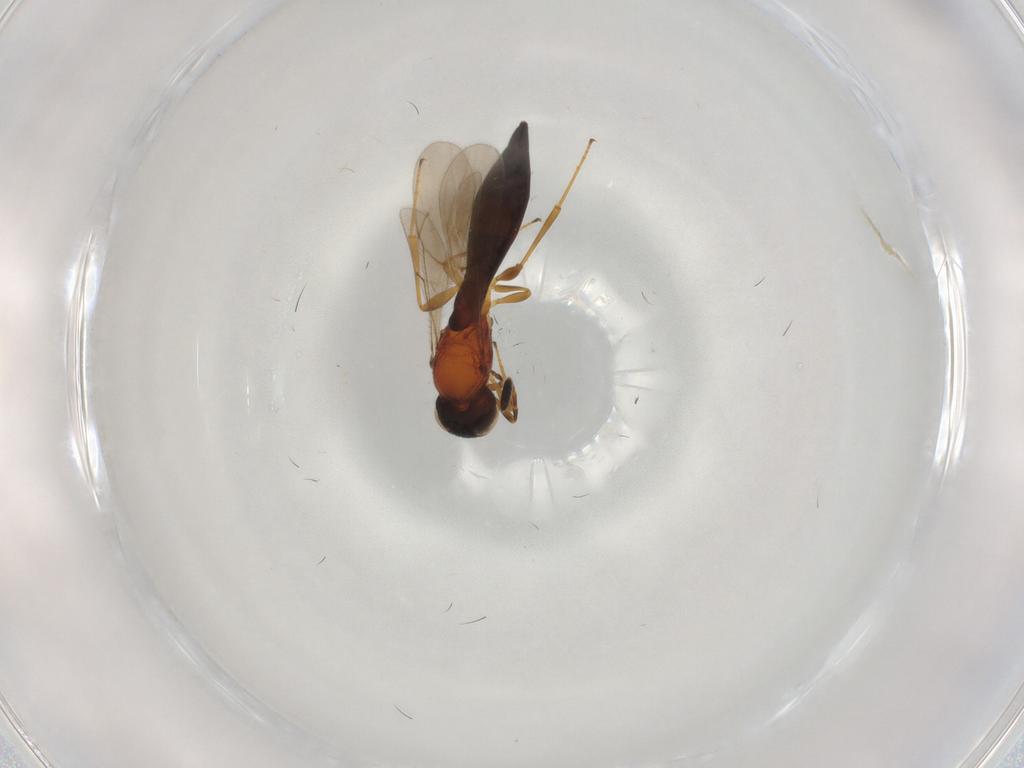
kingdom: Animalia
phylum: Arthropoda
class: Insecta
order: Hymenoptera
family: Scelionidae
